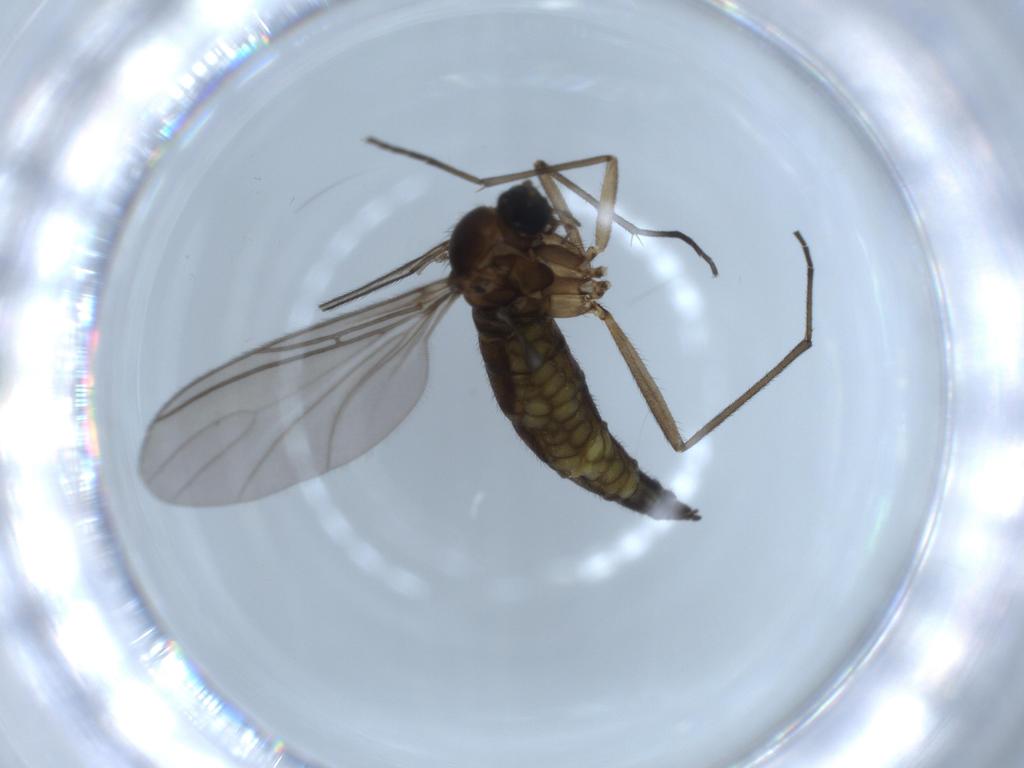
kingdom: Animalia
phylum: Arthropoda
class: Insecta
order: Diptera
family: Sciaridae
